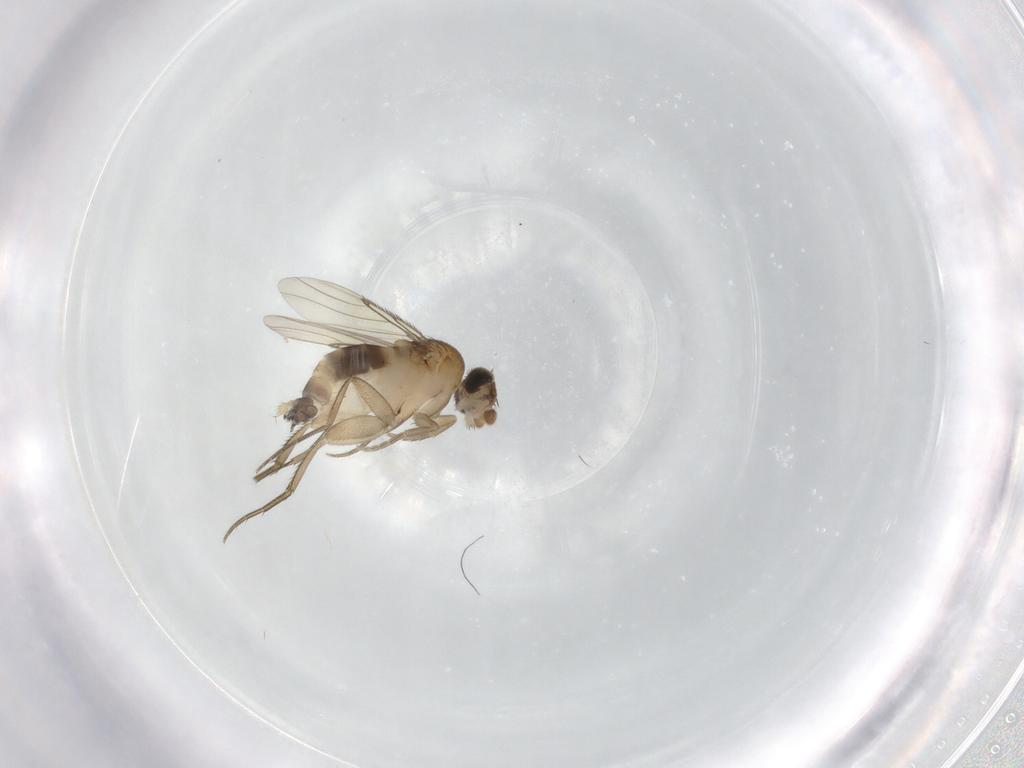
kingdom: Animalia
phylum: Arthropoda
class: Insecta
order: Diptera
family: Phoridae
